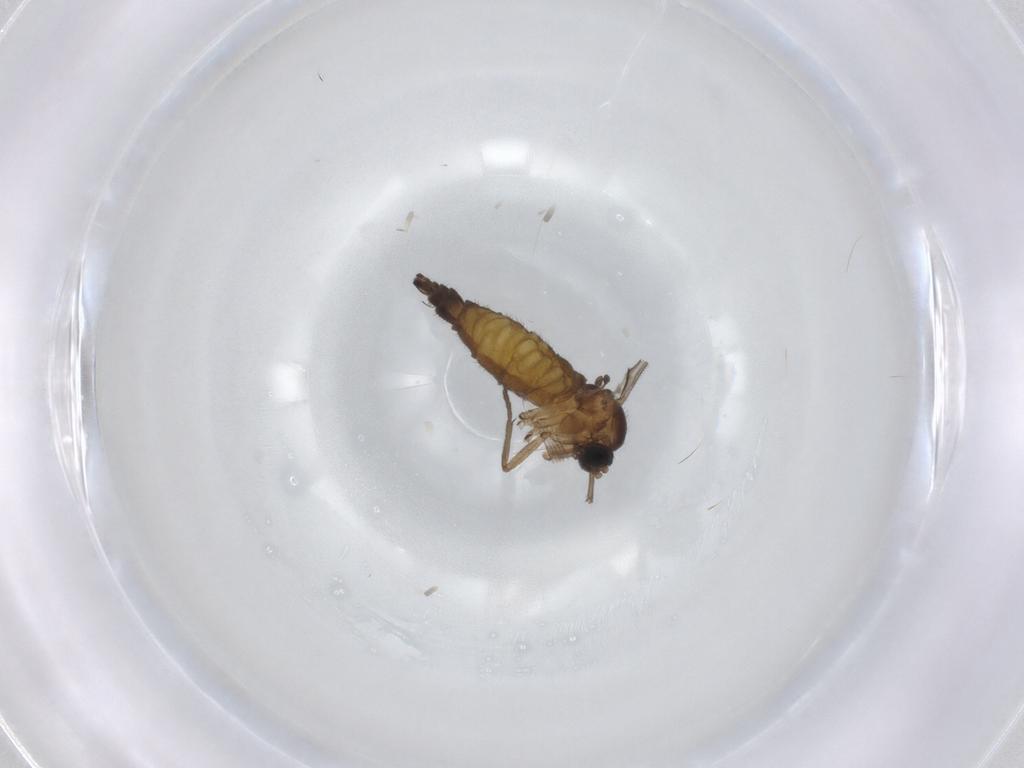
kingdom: Animalia
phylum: Arthropoda
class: Insecta
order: Diptera
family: Sciaridae
